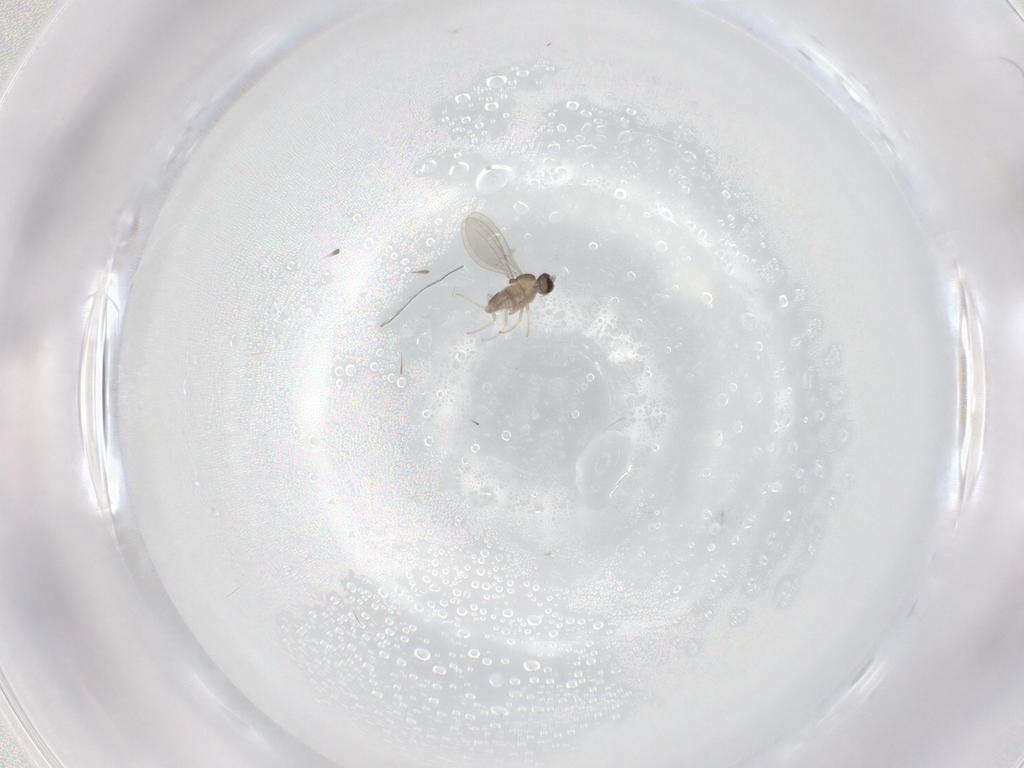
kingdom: Animalia
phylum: Arthropoda
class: Insecta
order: Diptera
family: Cecidomyiidae
